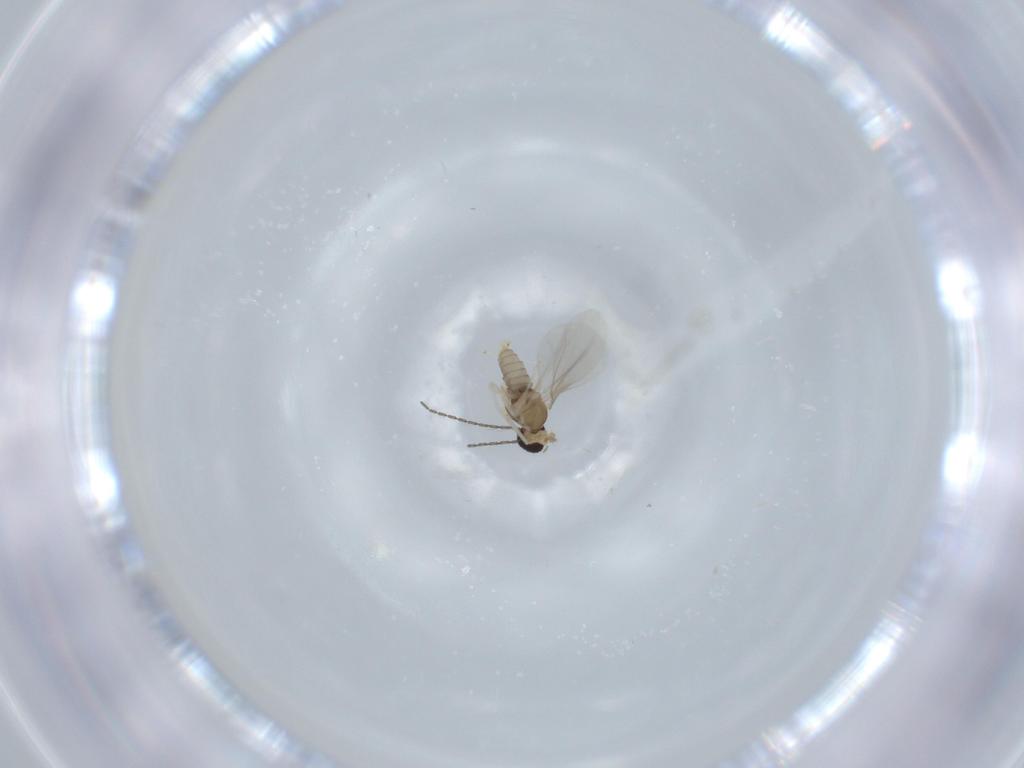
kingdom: Animalia
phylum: Arthropoda
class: Insecta
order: Diptera
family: Cecidomyiidae
